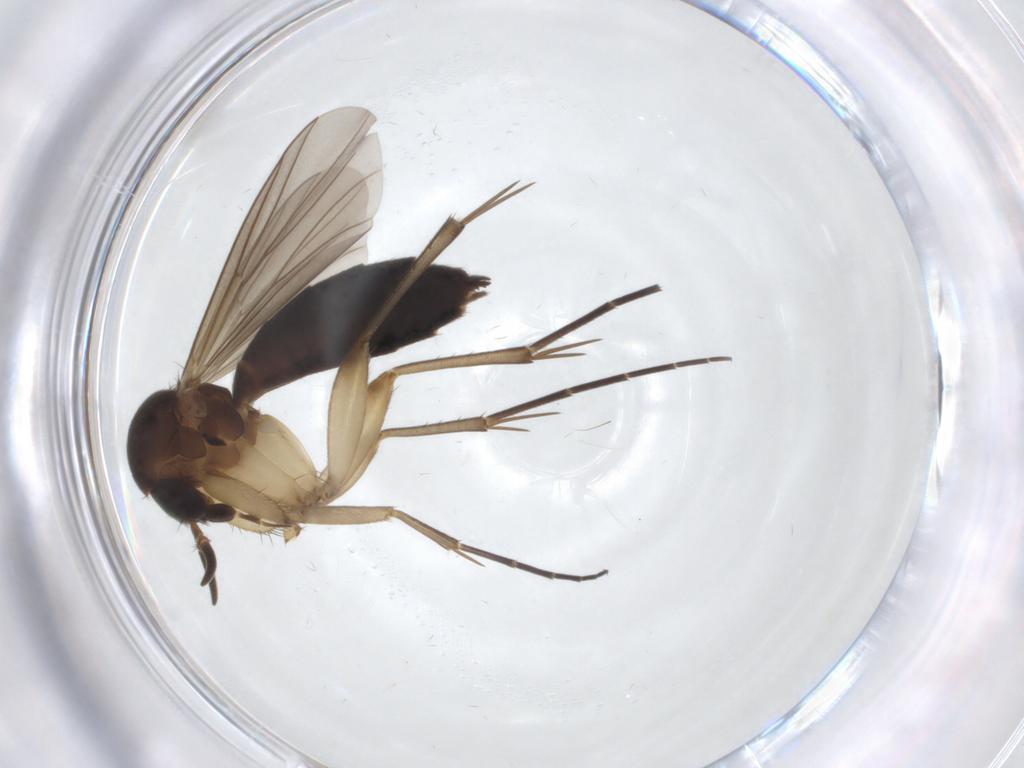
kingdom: Animalia
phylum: Arthropoda
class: Insecta
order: Diptera
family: Mycetophilidae
